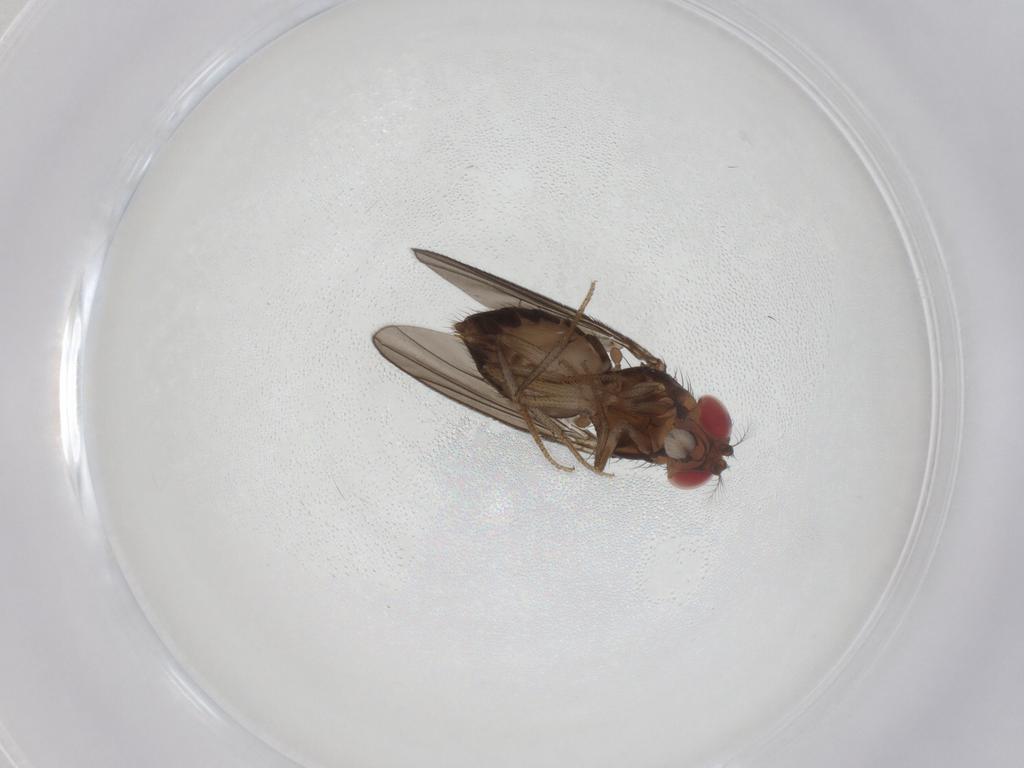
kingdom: Animalia
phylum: Arthropoda
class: Insecta
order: Diptera
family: Drosophilidae
